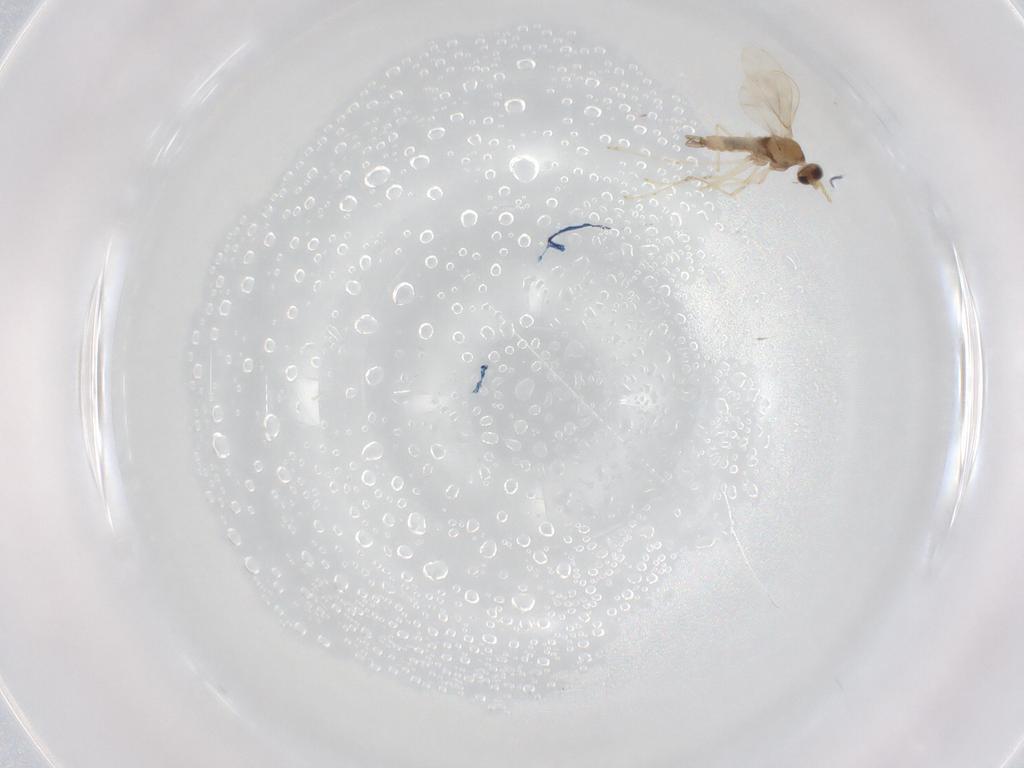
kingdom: Animalia
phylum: Arthropoda
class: Insecta
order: Diptera
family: Cecidomyiidae
